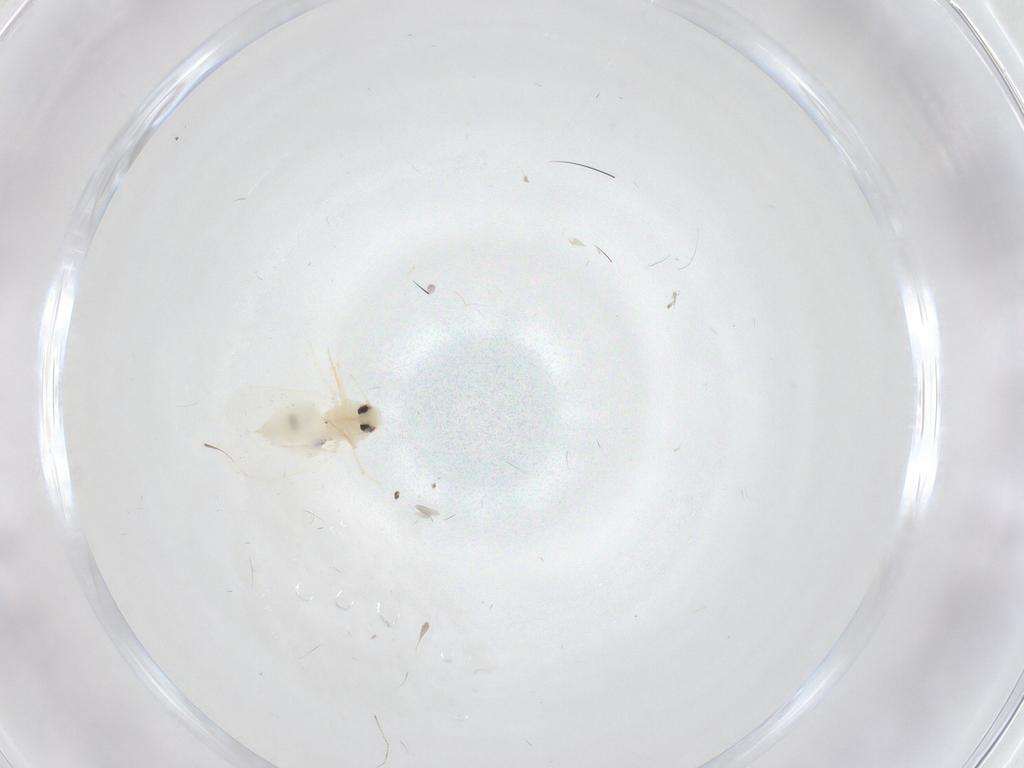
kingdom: Animalia
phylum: Arthropoda
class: Insecta
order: Hemiptera
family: Aleyrodidae
